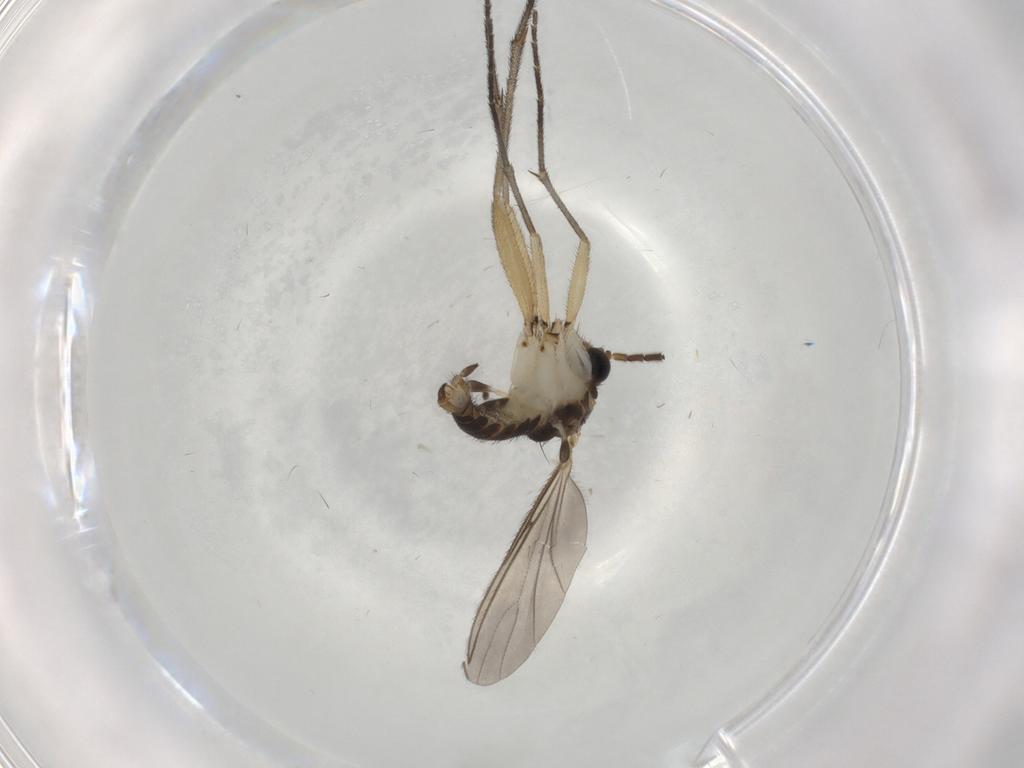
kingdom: Animalia
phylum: Arthropoda
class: Insecta
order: Diptera
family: Sciaridae
